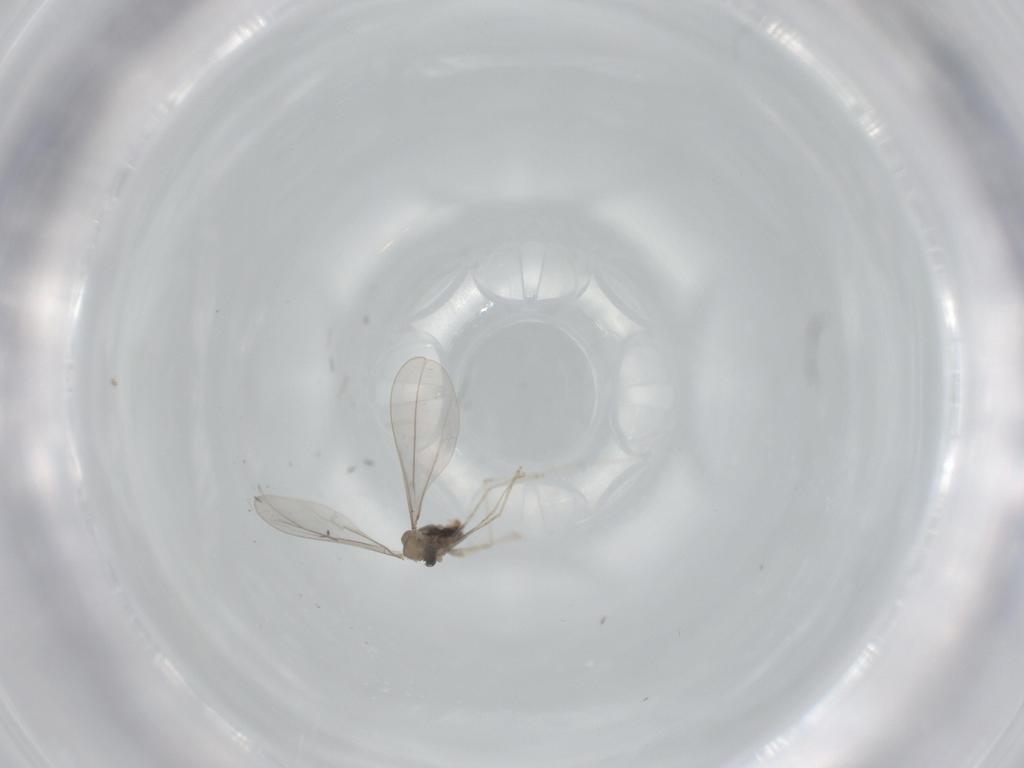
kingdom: Animalia
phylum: Arthropoda
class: Insecta
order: Diptera
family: Cecidomyiidae
